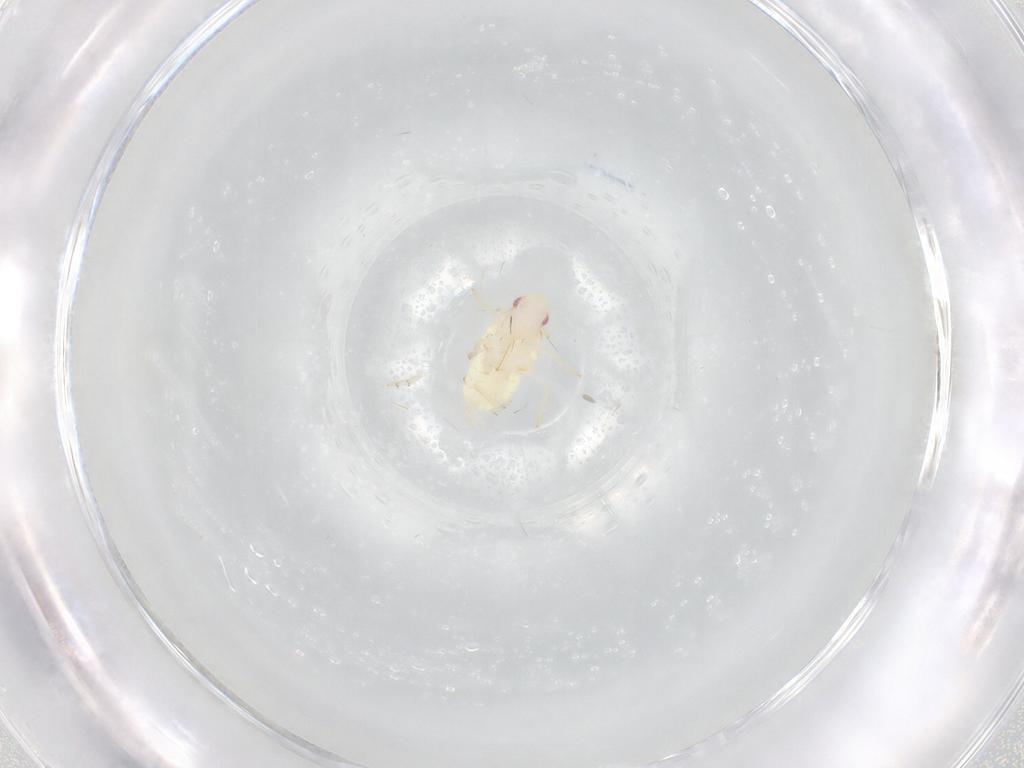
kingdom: Animalia
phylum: Arthropoda
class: Insecta
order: Hemiptera
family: Flatidae
